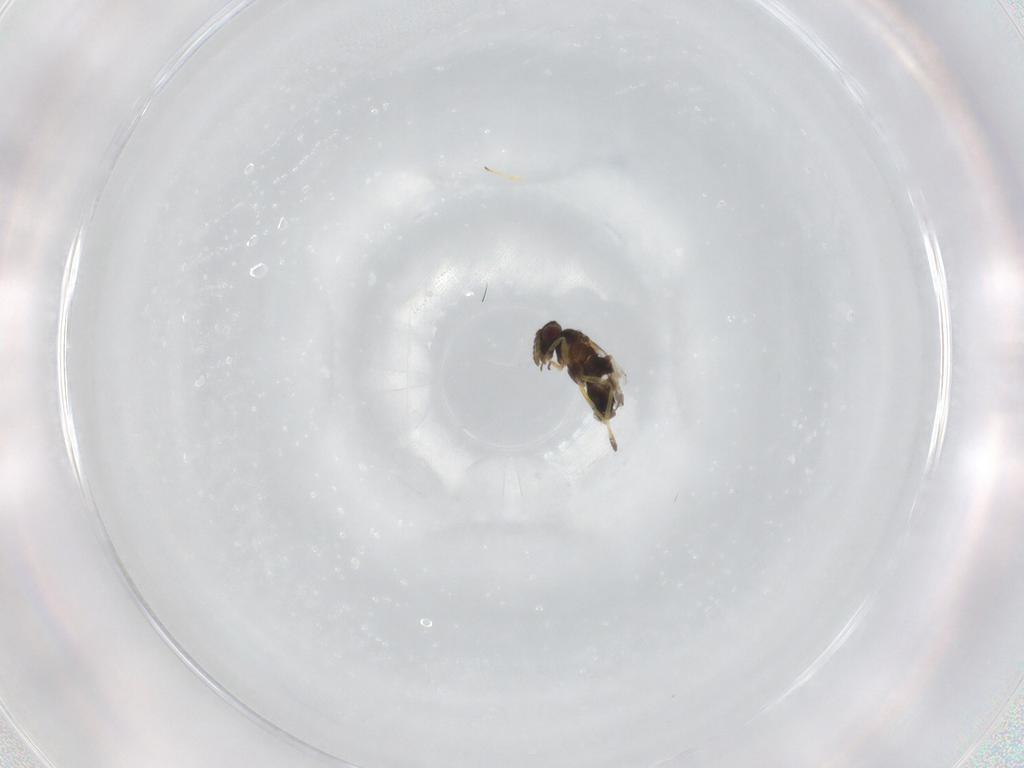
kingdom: Animalia
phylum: Arthropoda
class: Insecta
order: Hymenoptera
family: Aphelinidae
